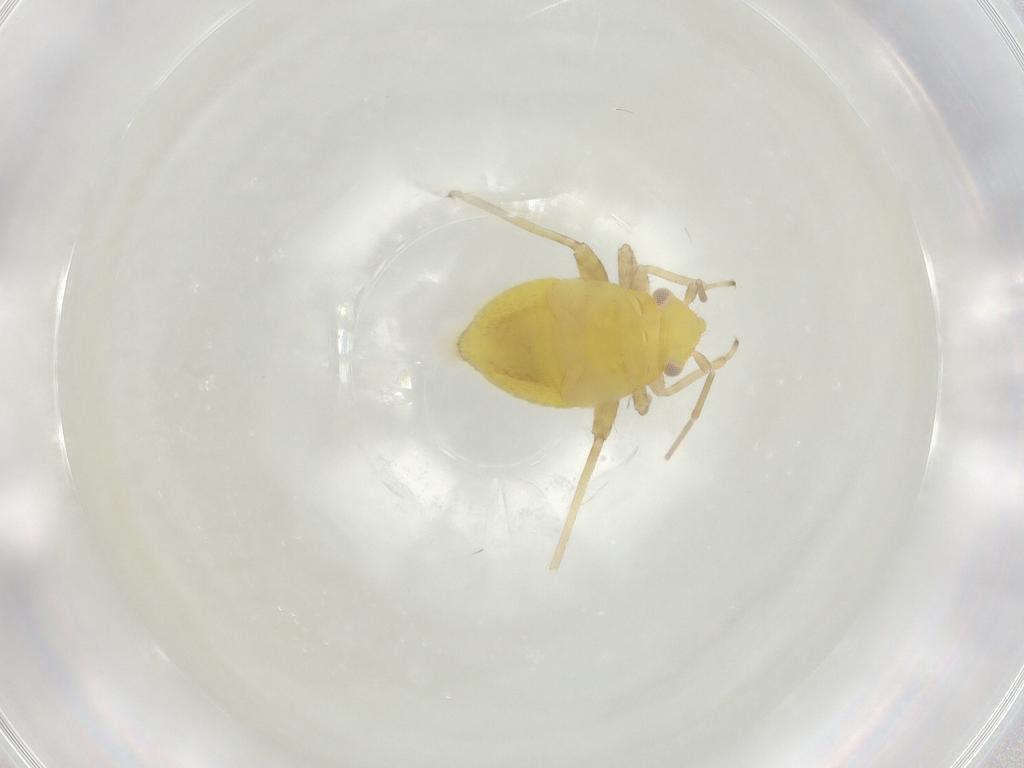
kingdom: Animalia
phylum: Arthropoda
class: Insecta
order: Hemiptera
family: Miridae
